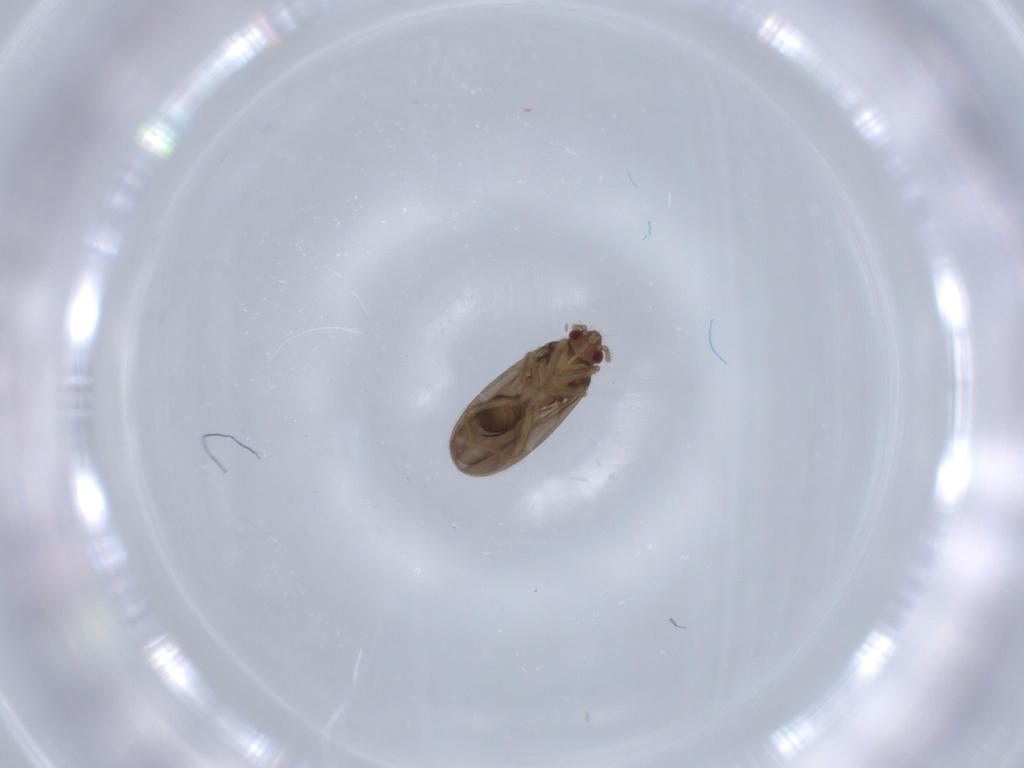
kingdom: Animalia
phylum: Arthropoda
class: Insecta
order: Hemiptera
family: Ceratocombidae
